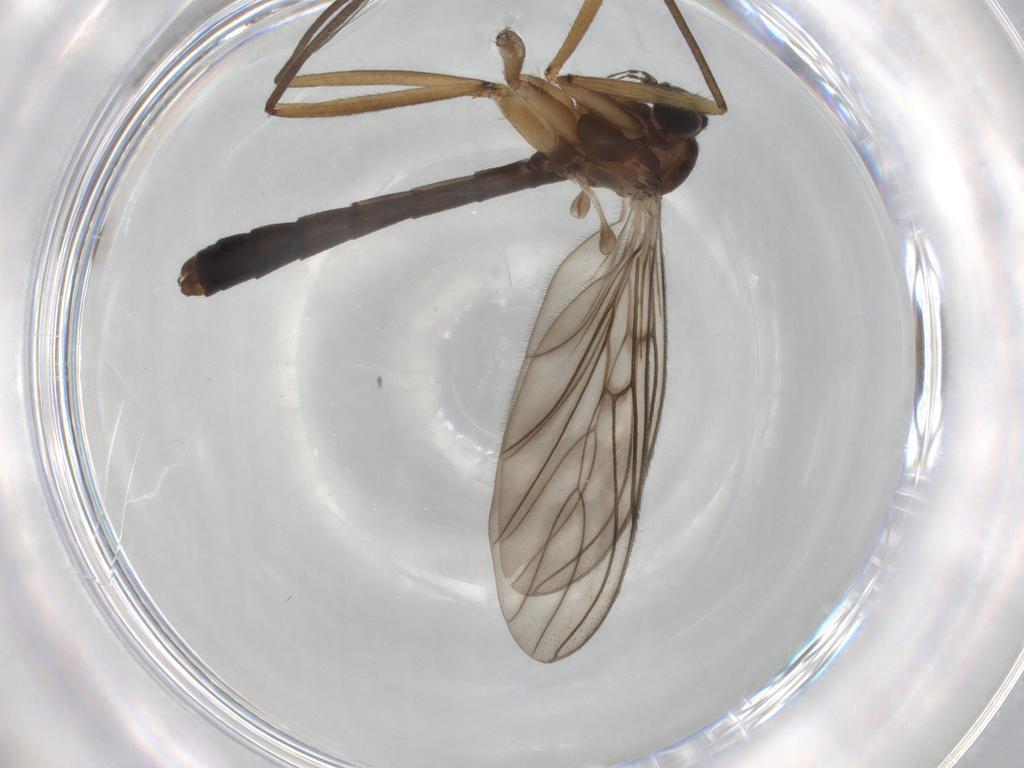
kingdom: Animalia
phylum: Arthropoda
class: Insecta
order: Diptera
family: Chironomidae
